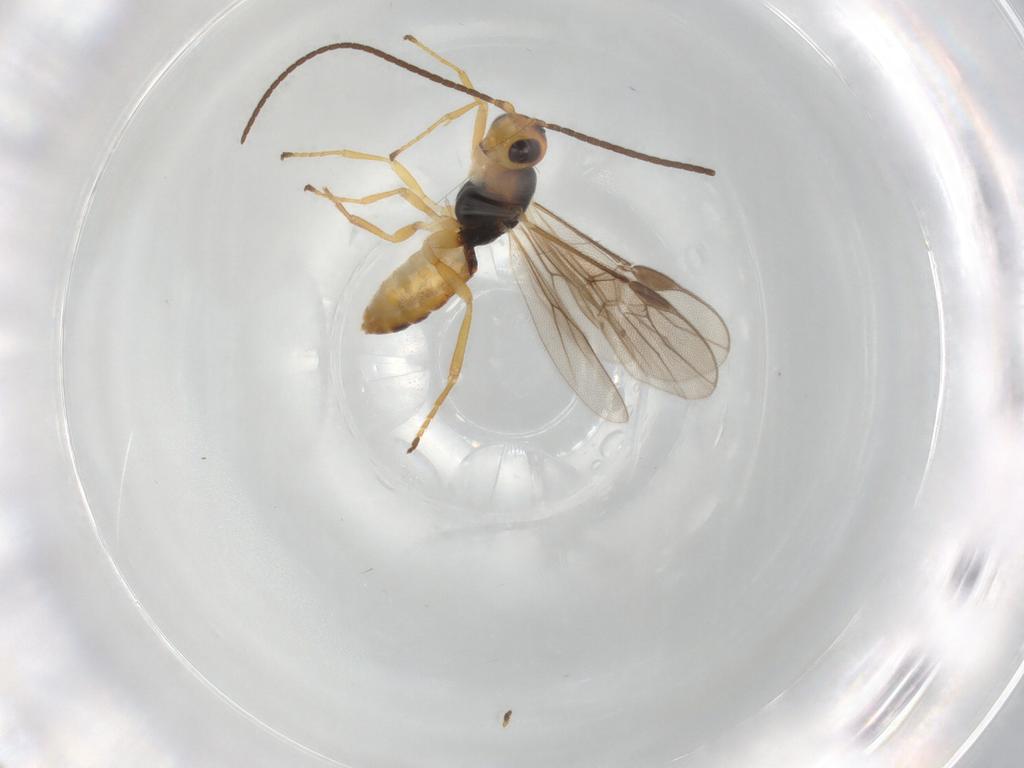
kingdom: Animalia
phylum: Arthropoda
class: Insecta
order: Hymenoptera
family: Braconidae
